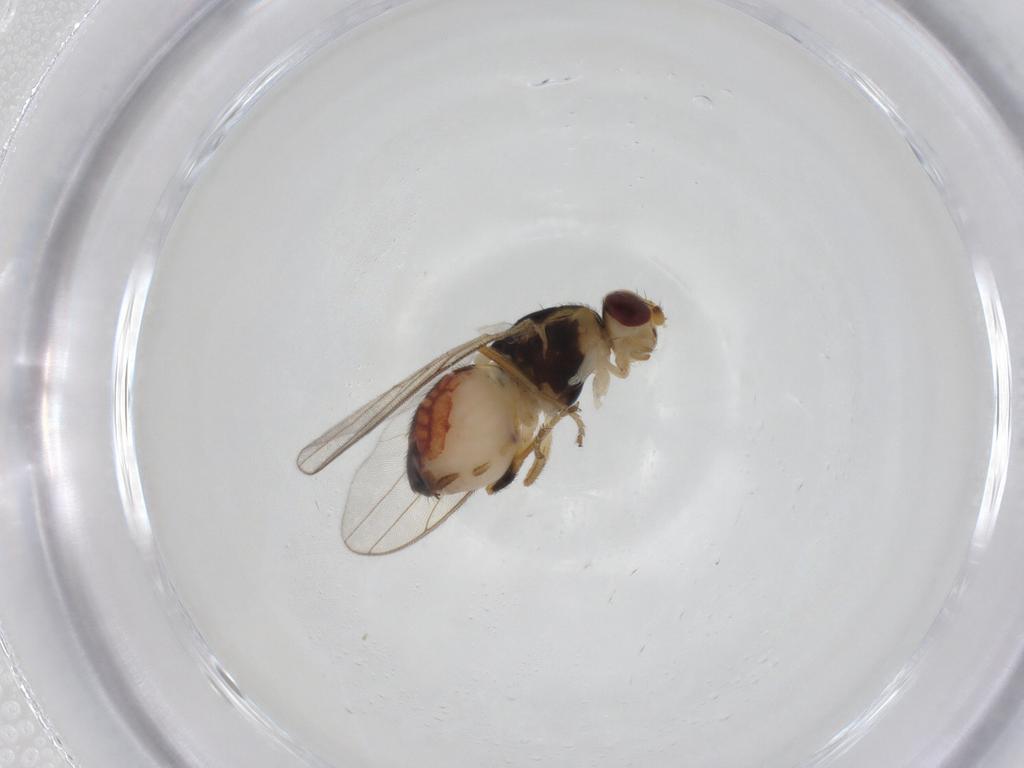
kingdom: Animalia
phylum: Arthropoda
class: Insecta
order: Diptera
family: Chloropidae
